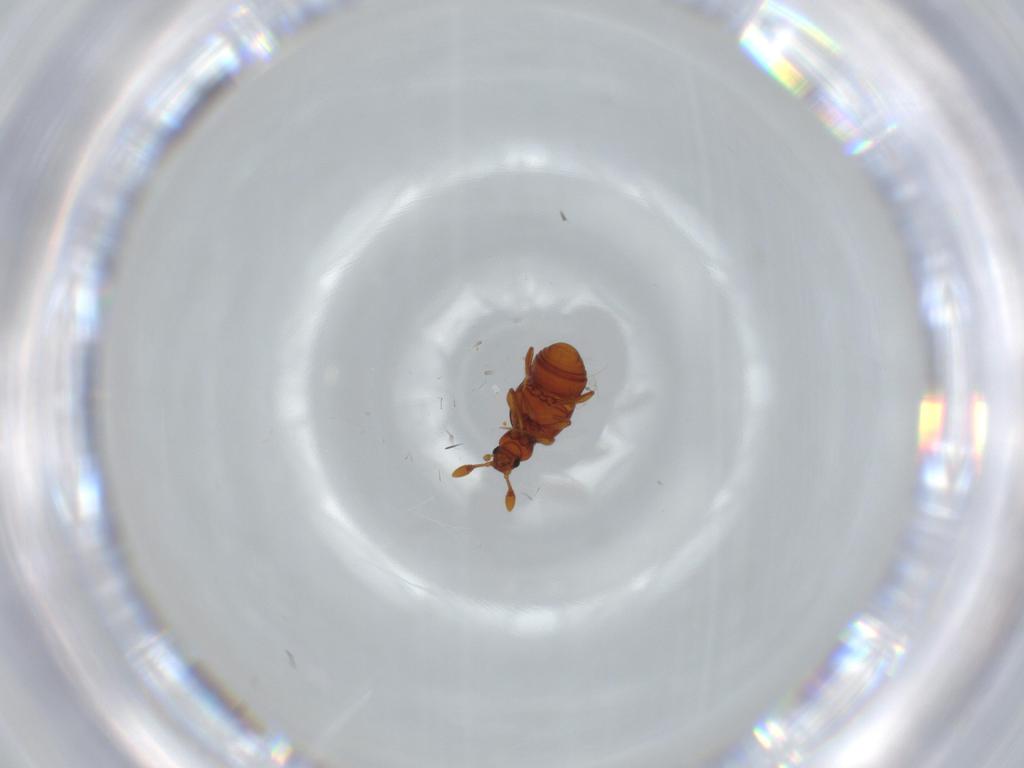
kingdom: Animalia
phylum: Arthropoda
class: Insecta
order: Coleoptera
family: Staphylinidae
